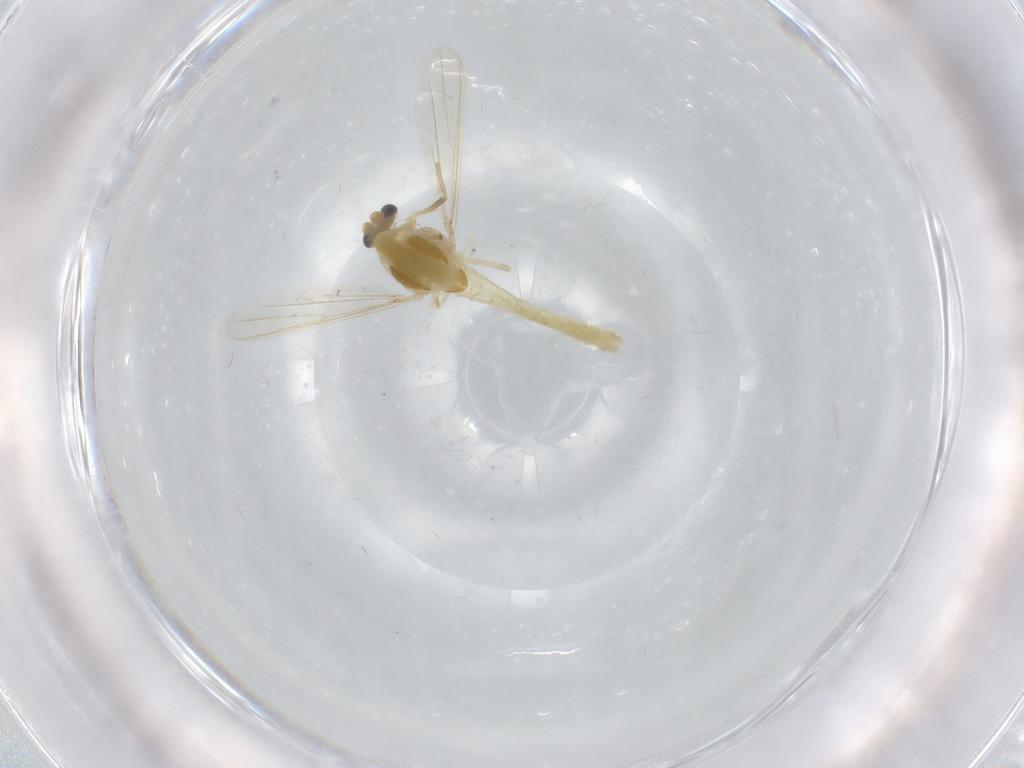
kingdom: Animalia
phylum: Arthropoda
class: Insecta
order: Diptera
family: Chironomidae
